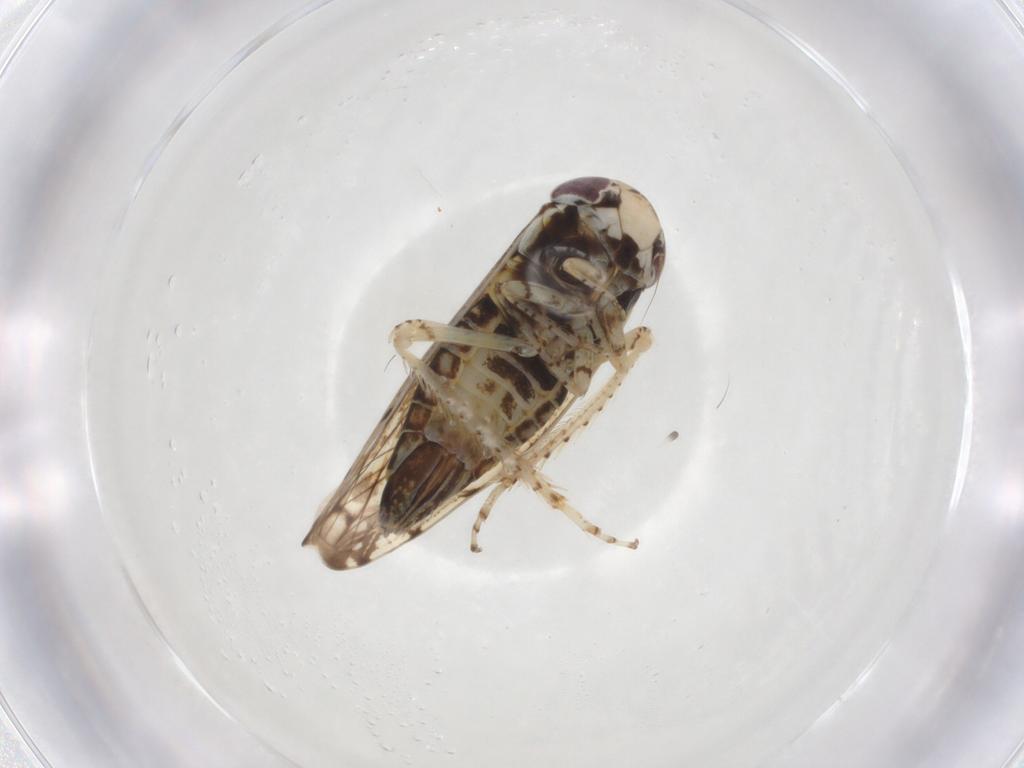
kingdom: Animalia
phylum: Arthropoda
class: Insecta
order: Hemiptera
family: Cicadellidae
